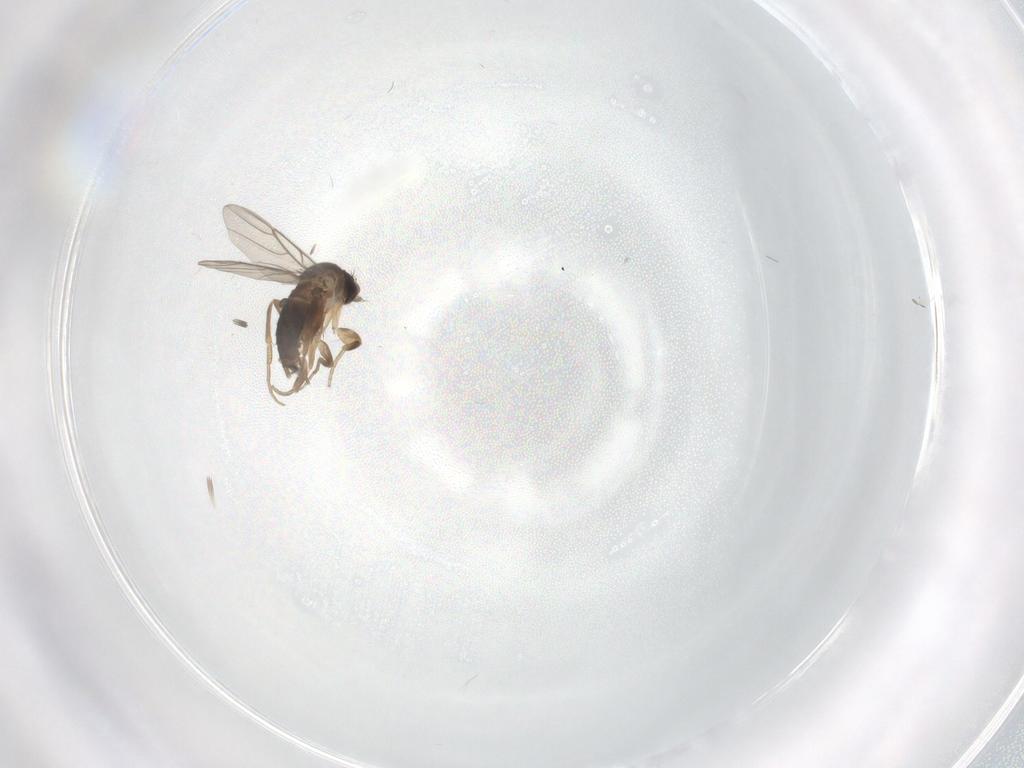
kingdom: Animalia
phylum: Arthropoda
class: Insecta
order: Diptera
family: Phoridae
